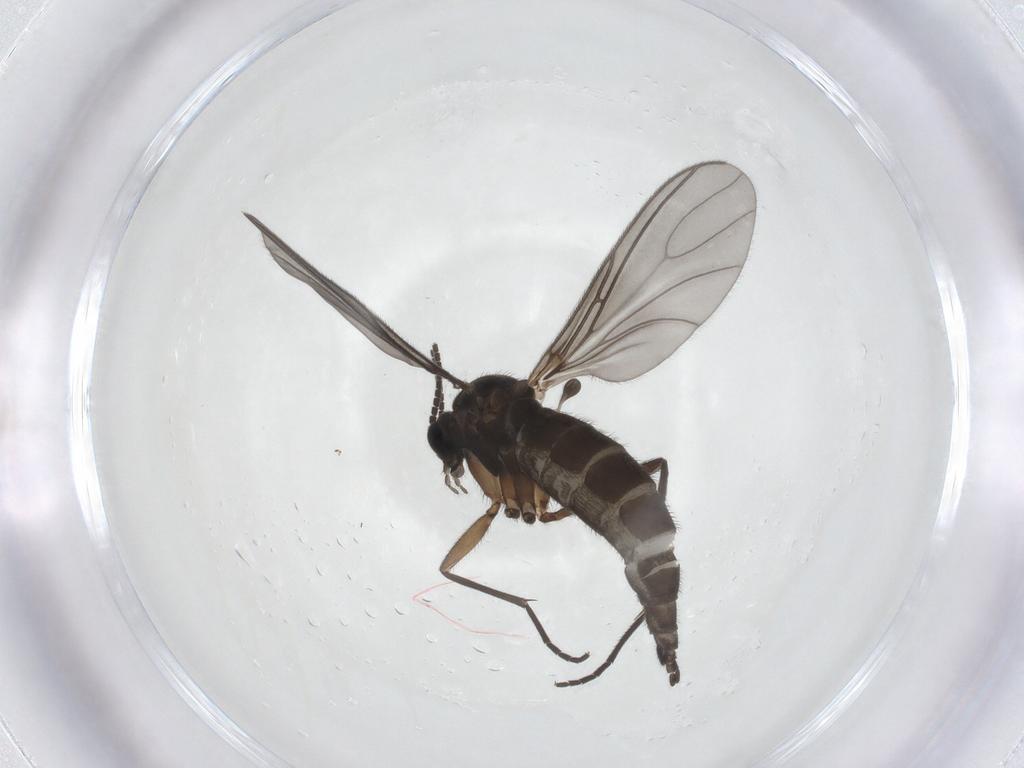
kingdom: Animalia
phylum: Arthropoda
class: Insecta
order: Diptera
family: Sciaridae
